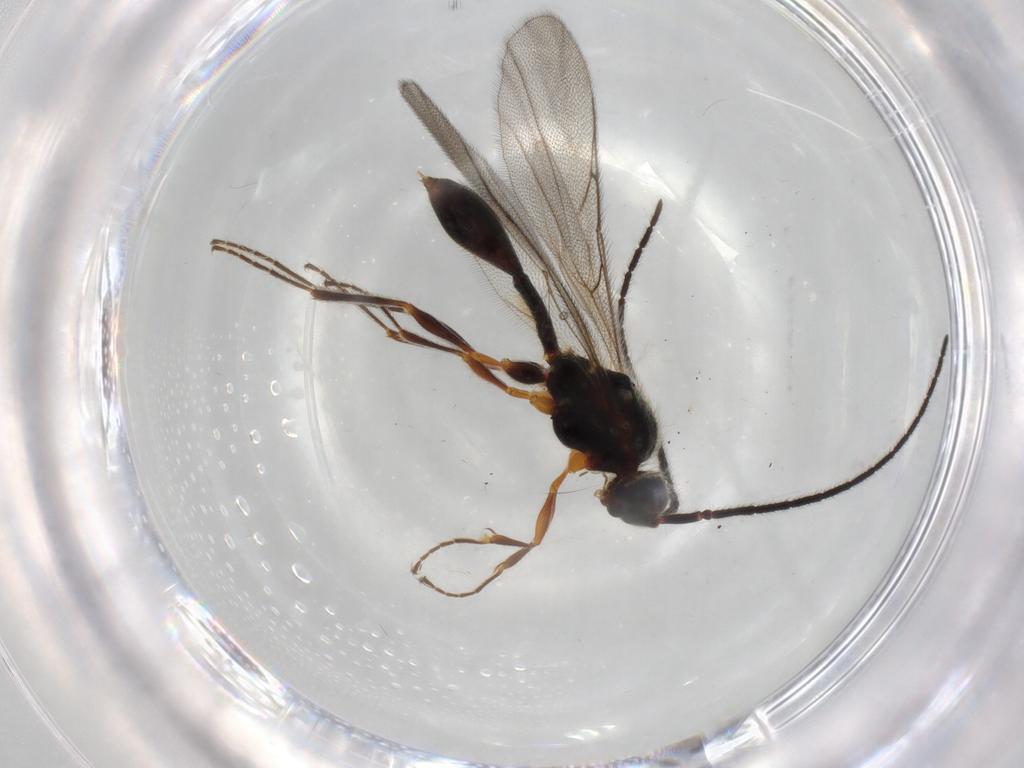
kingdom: Animalia
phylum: Arthropoda
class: Insecta
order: Hymenoptera
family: Diapriidae
